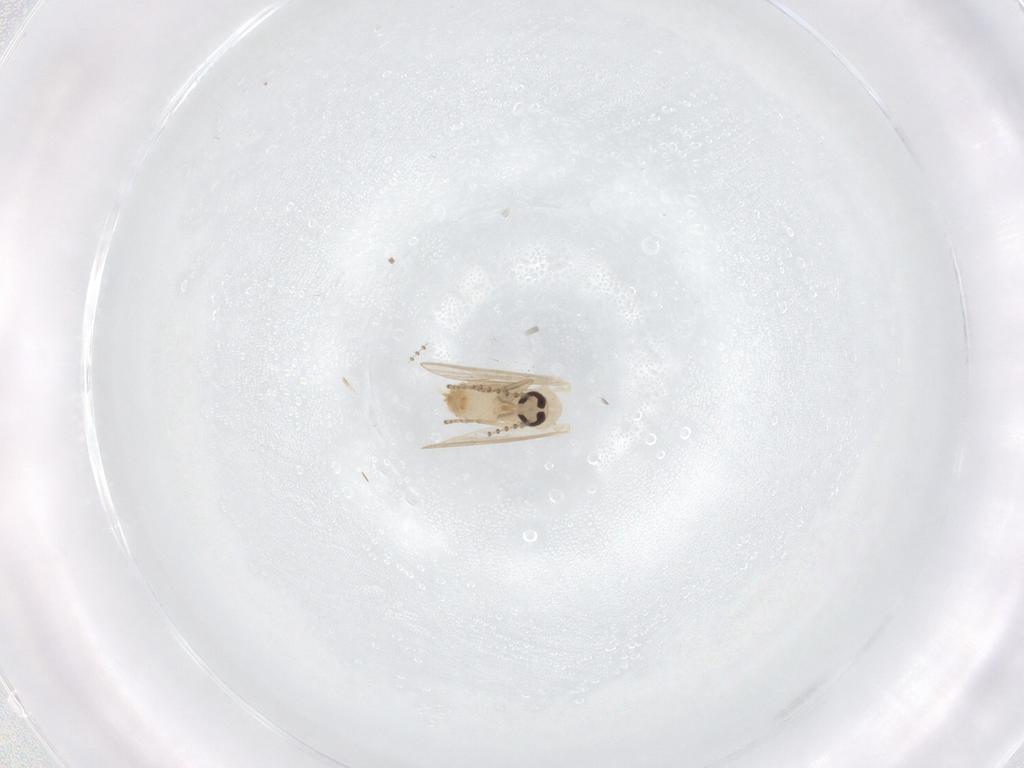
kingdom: Animalia
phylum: Arthropoda
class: Insecta
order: Diptera
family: Psychodidae
